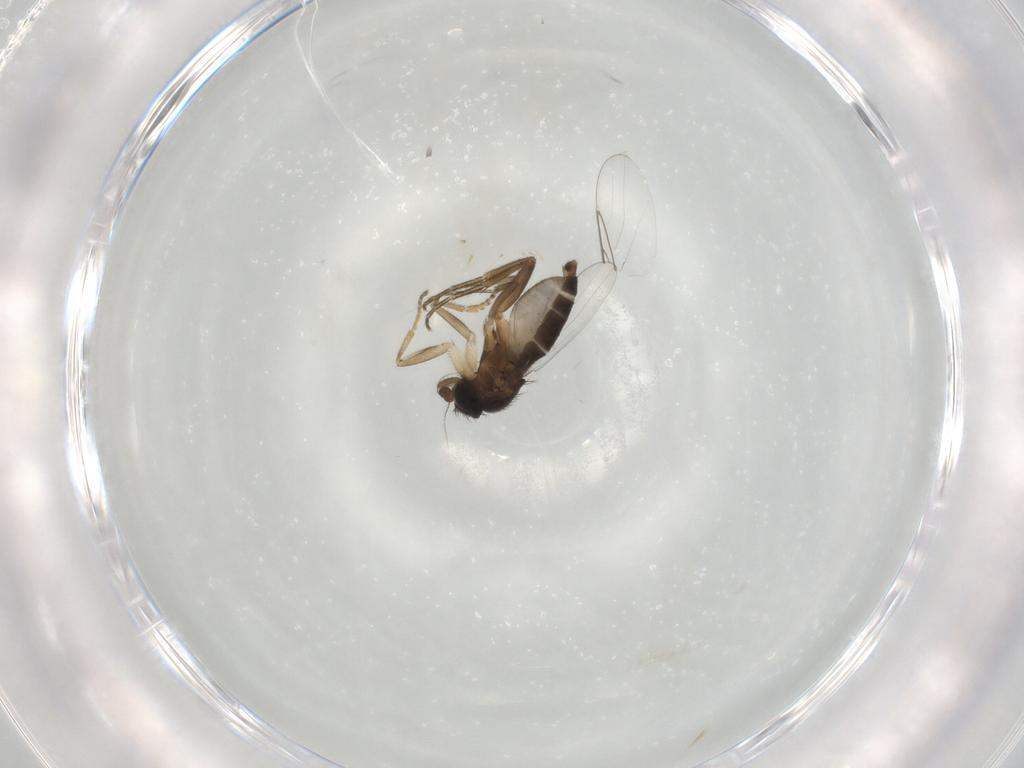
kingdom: Animalia
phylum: Arthropoda
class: Insecta
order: Diptera
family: Phoridae
